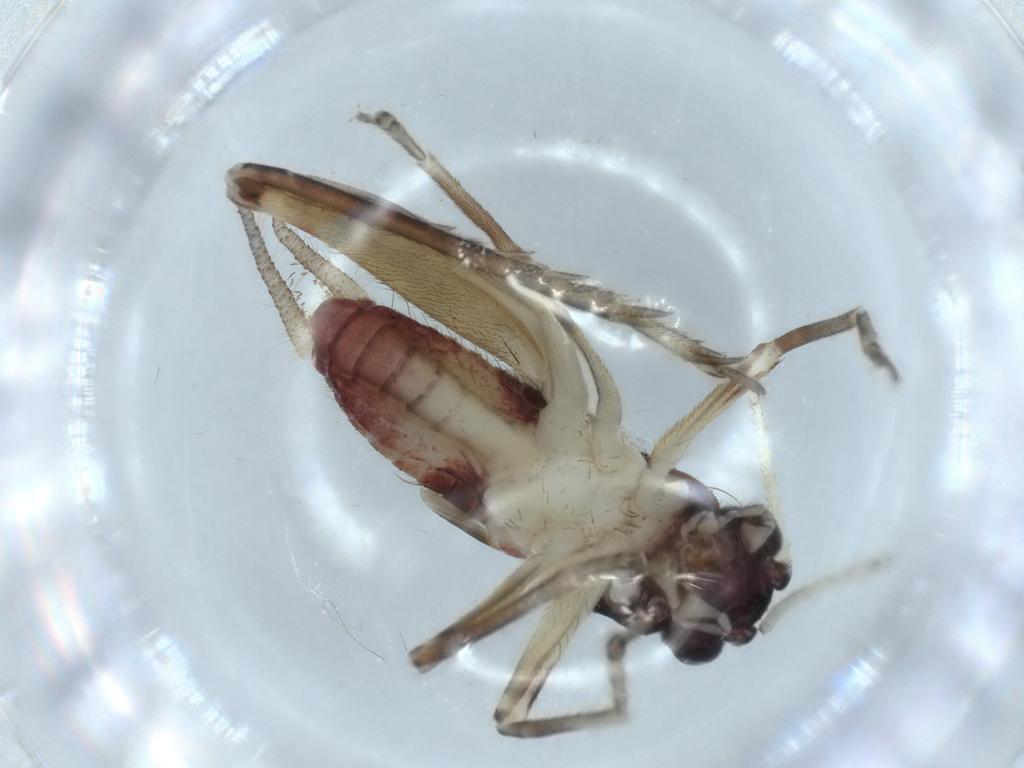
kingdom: Animalia
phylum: Arthropoda
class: Insecta
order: Orthoptera
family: Trigonidiidae
